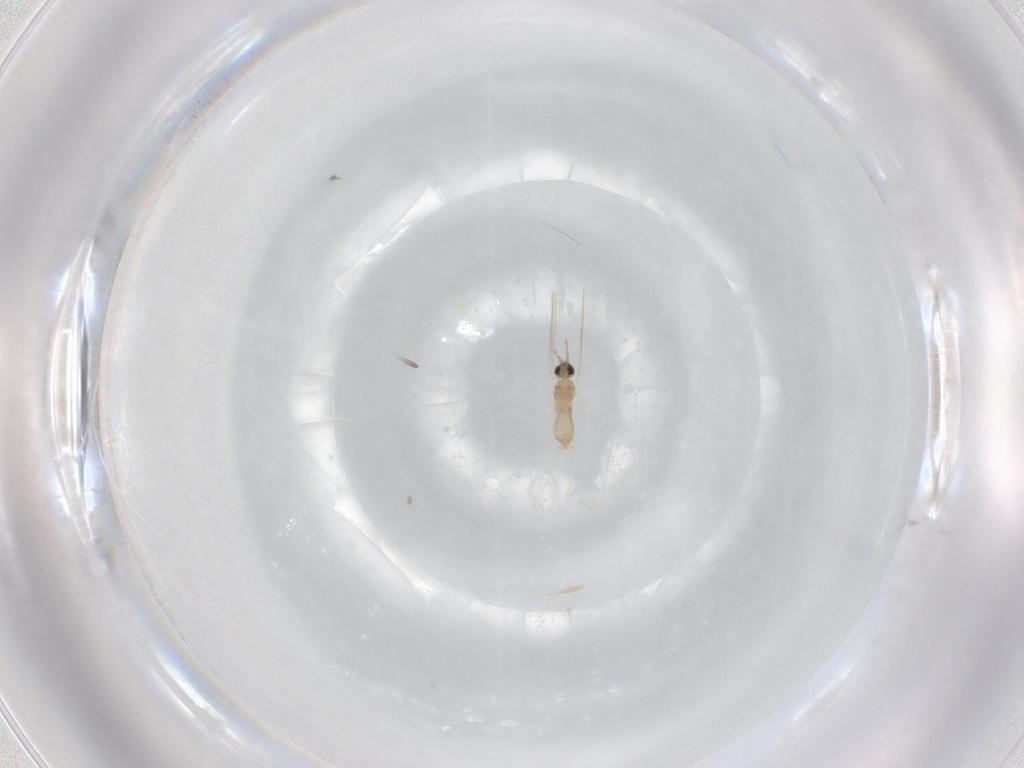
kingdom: Animalia
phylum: Arthropoda
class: Insecta
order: Diptera
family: Cecidomyiidae
